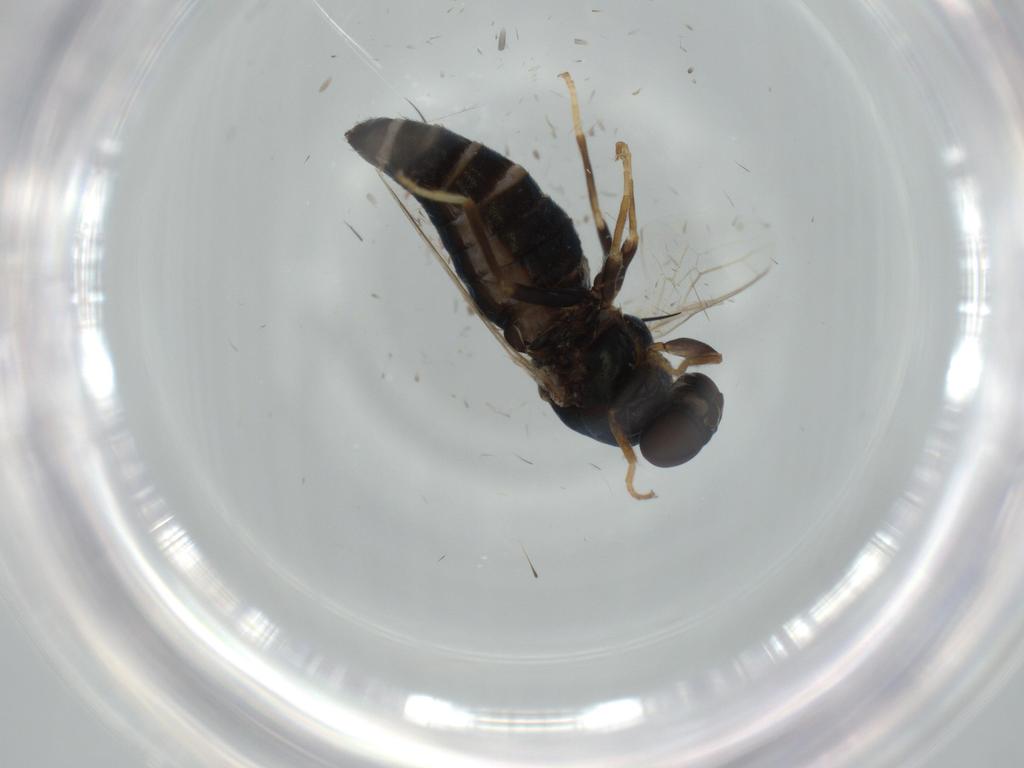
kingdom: Animalia
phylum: Arthropoda
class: Insecta
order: Diptera
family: Scenopinidae
